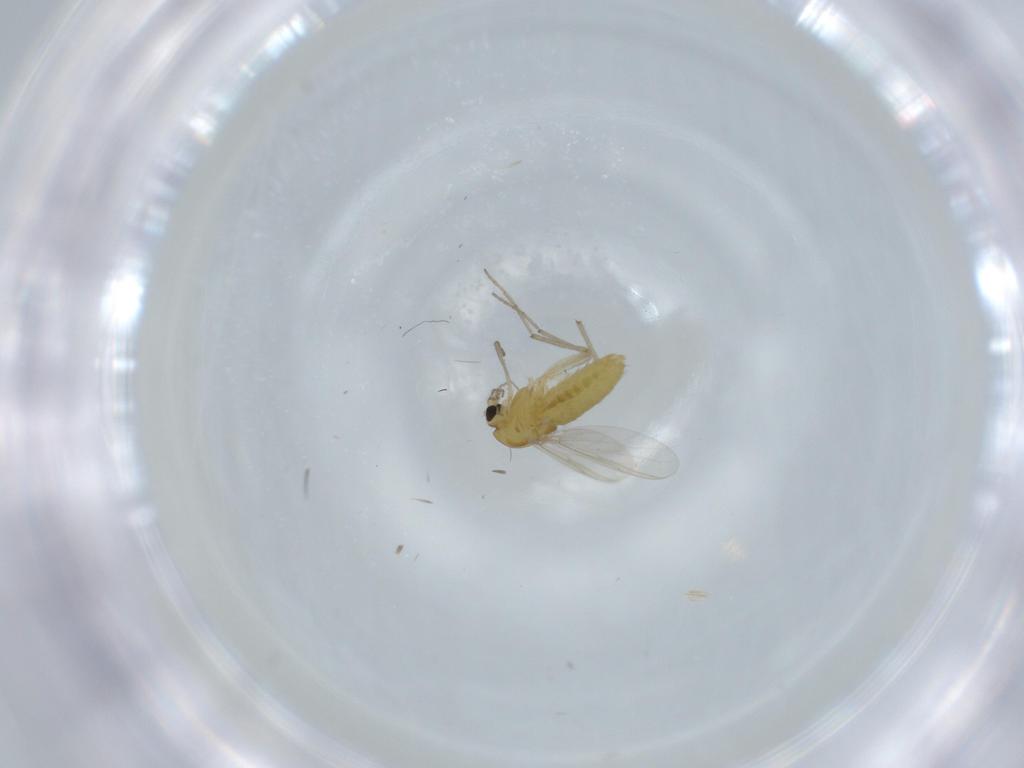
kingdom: Animalia
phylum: Arthropoda
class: Insecta
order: Diptera
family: Chironomidae
